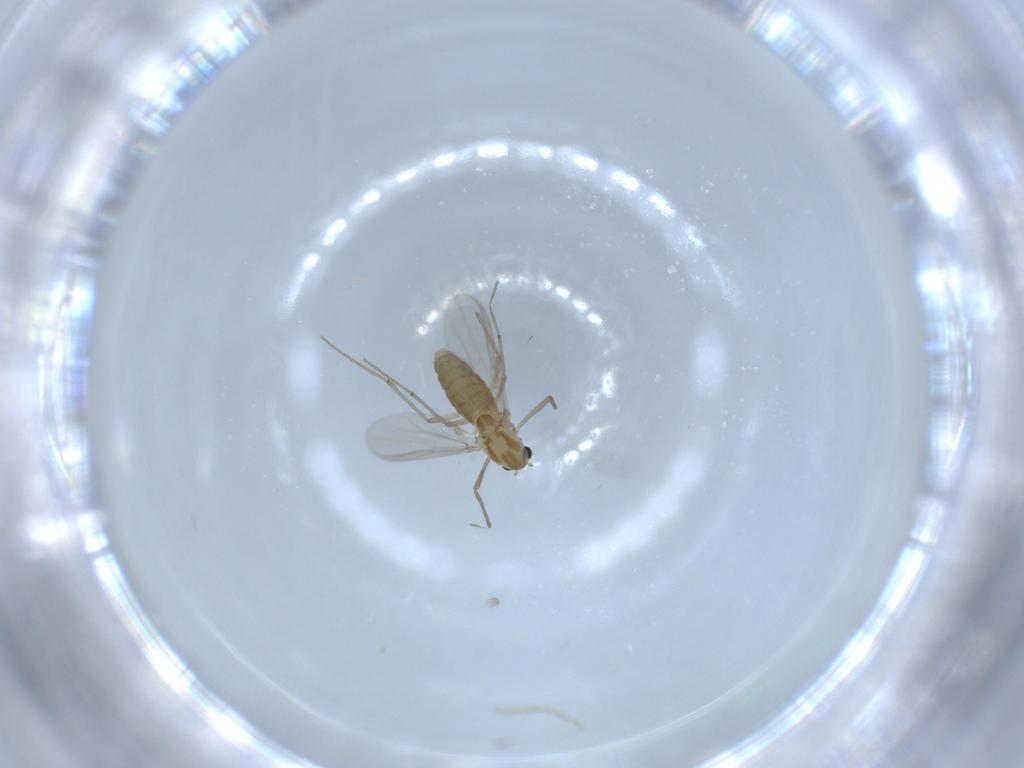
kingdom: Animalia
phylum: Arthropoda
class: Insecta
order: Diptera
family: Chironomidae
